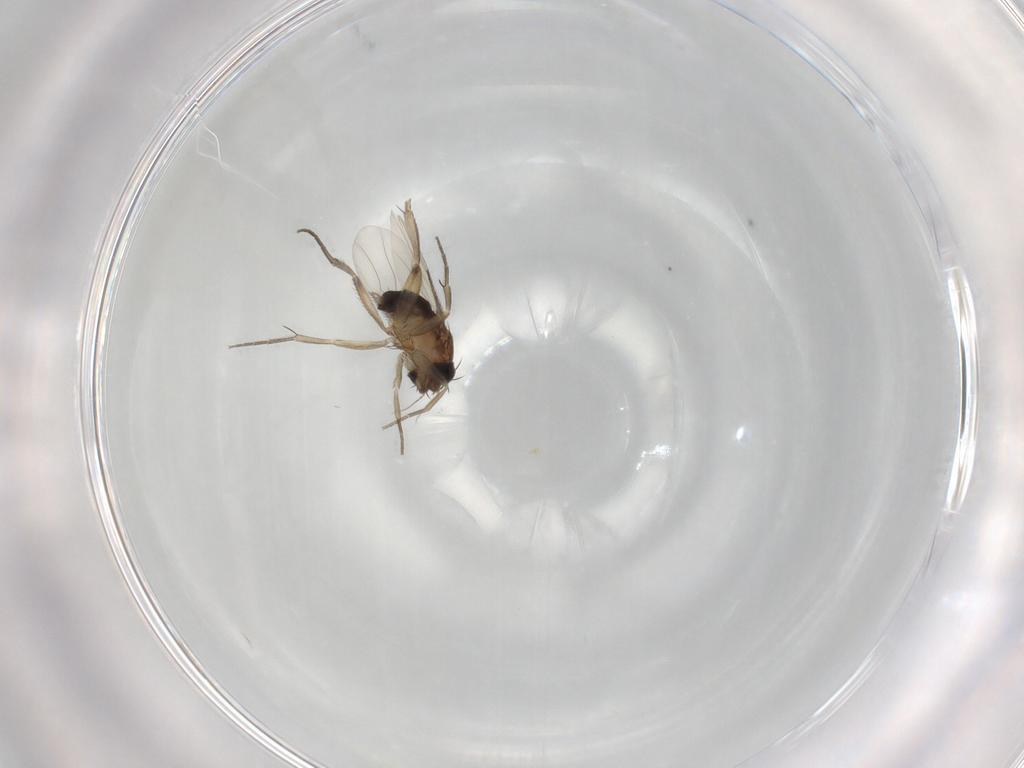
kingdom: Animalia
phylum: Arthropoda
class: Insecta
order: Diptera
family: Phoridae
